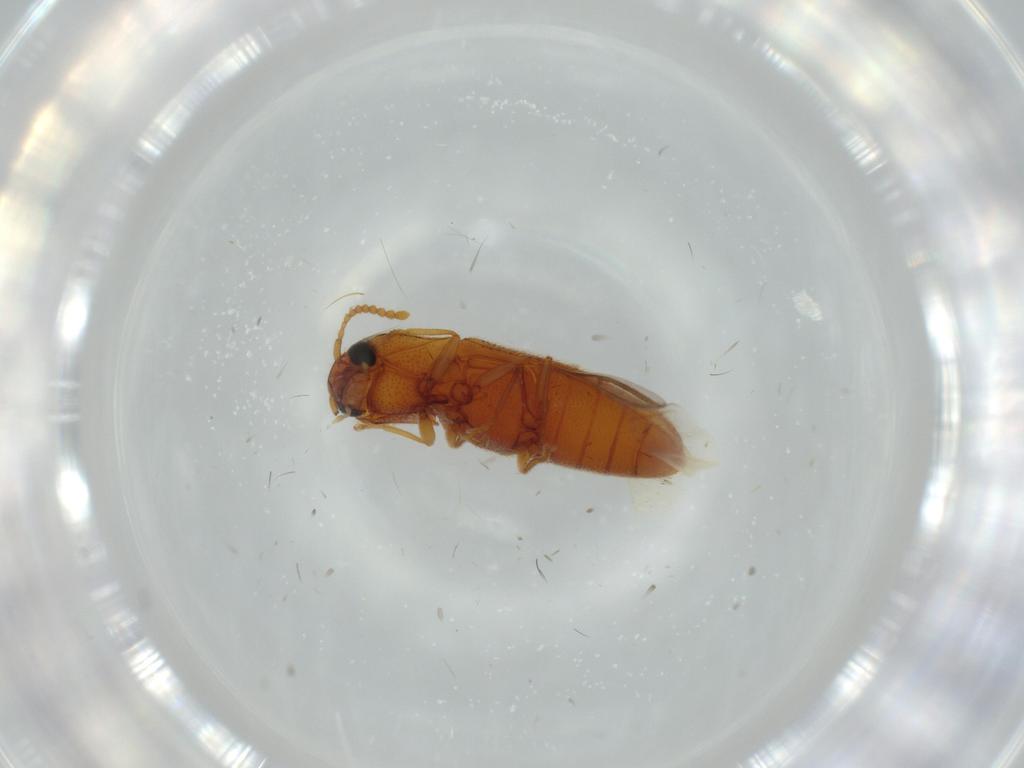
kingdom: Animalia
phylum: Arthropoda
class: Insecta
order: Coleoptera
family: Elateridae
